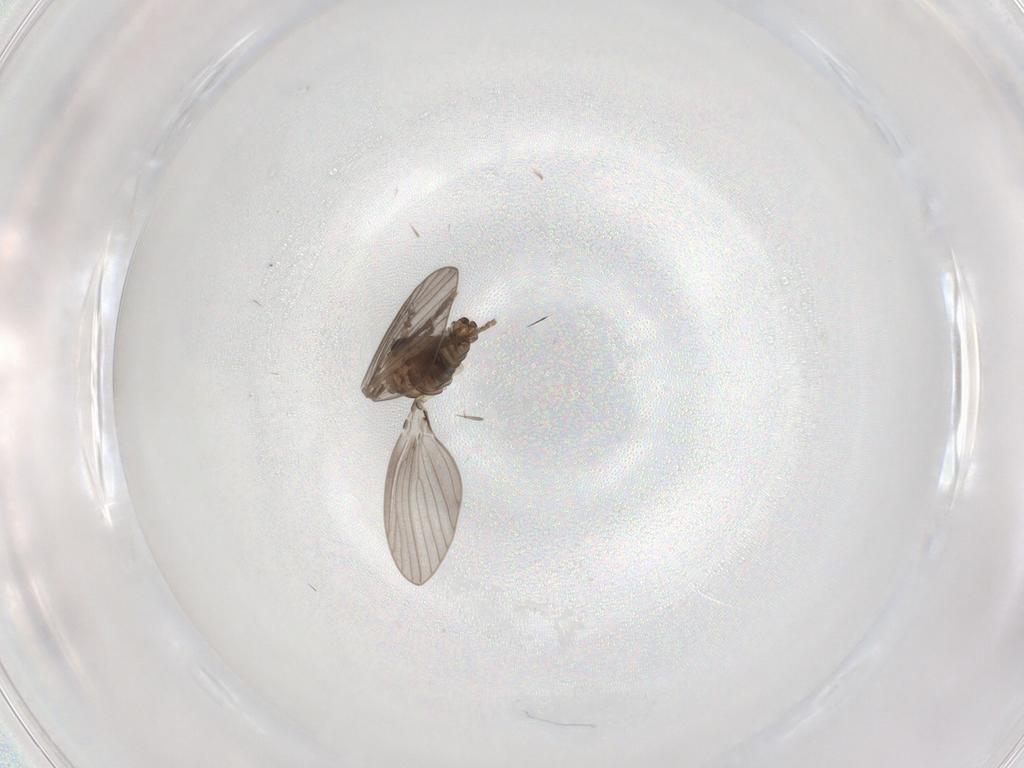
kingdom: Animalia
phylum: Arthropoda
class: Insecta
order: Diptera
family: Psychodidae
